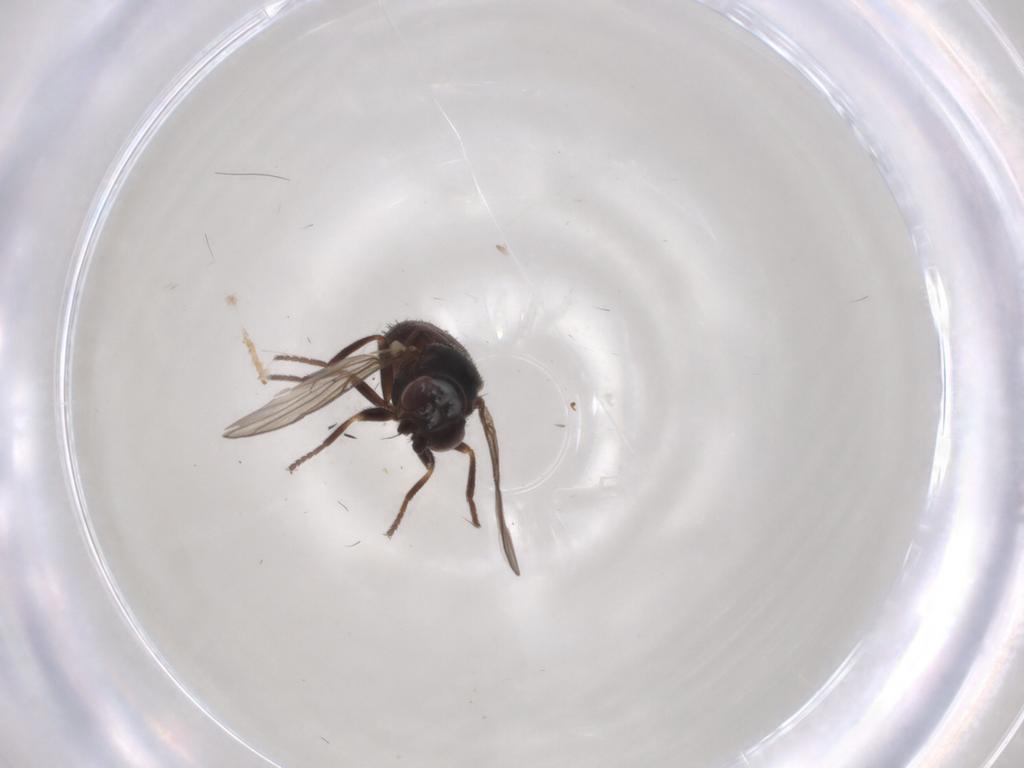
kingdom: Animalia
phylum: Arthropoda
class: Insecta
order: Diptera
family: Chloropidae
